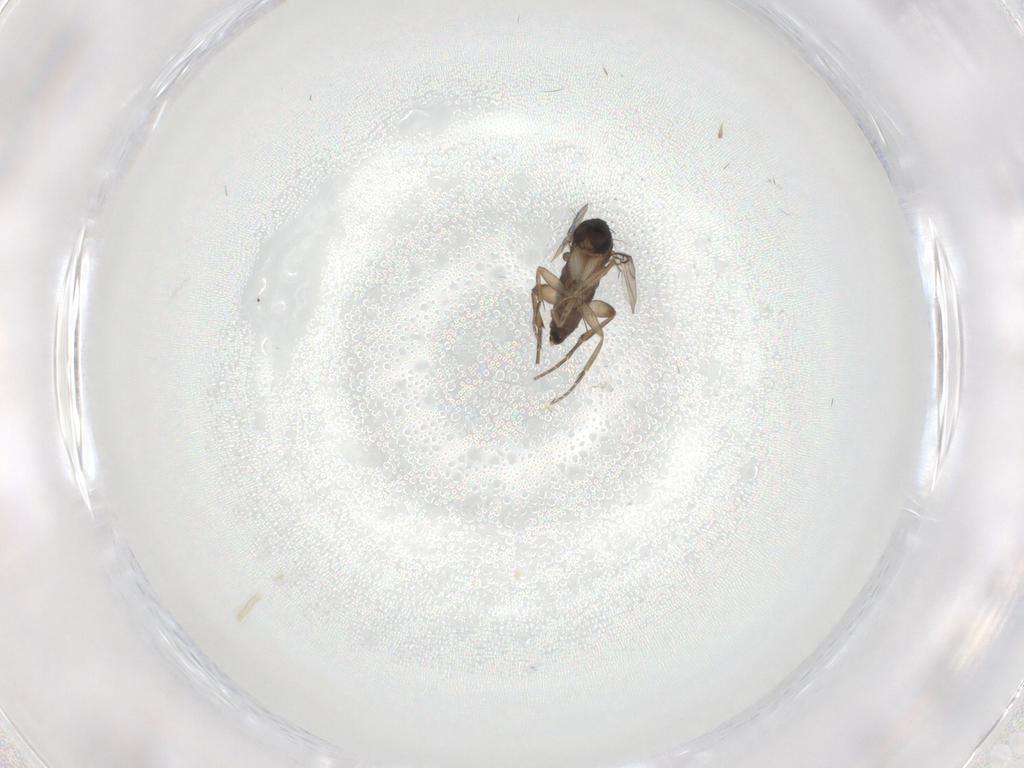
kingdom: Animalia
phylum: Arthropoda
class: Insecta
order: Diptera
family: Phoridae
